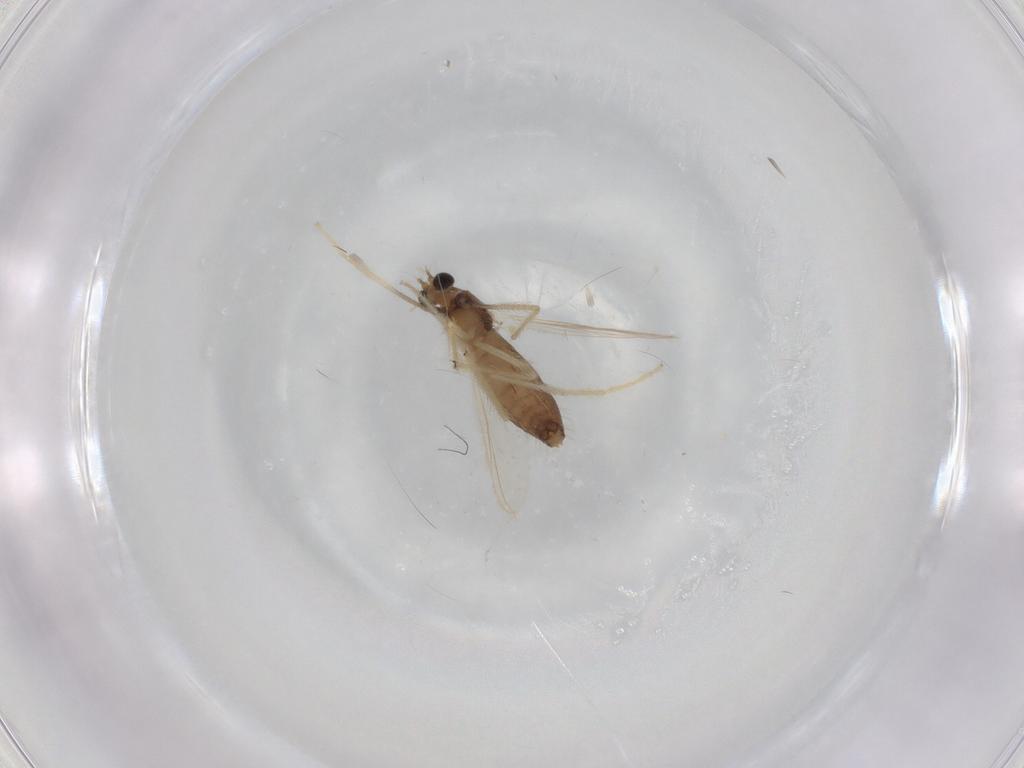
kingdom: Animalia
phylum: Arthropoda
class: Insecta
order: Diptera
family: Chironomidae
